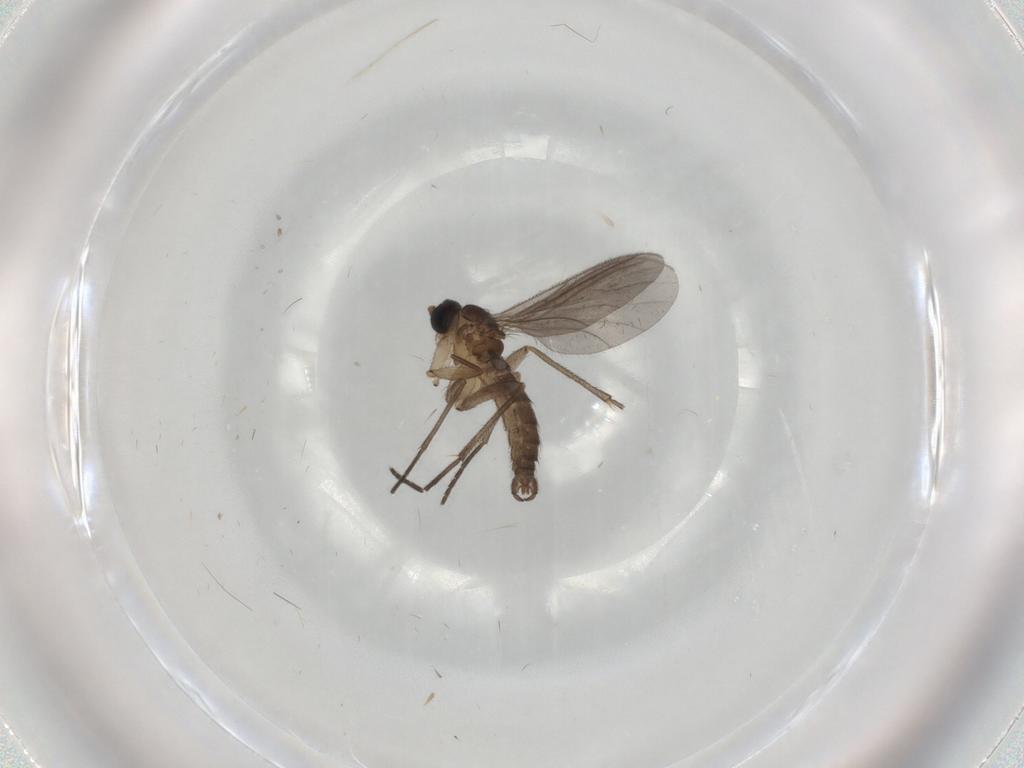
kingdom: Animalia
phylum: Arthropoda
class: Insecta
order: Diptera
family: Sciaridae
